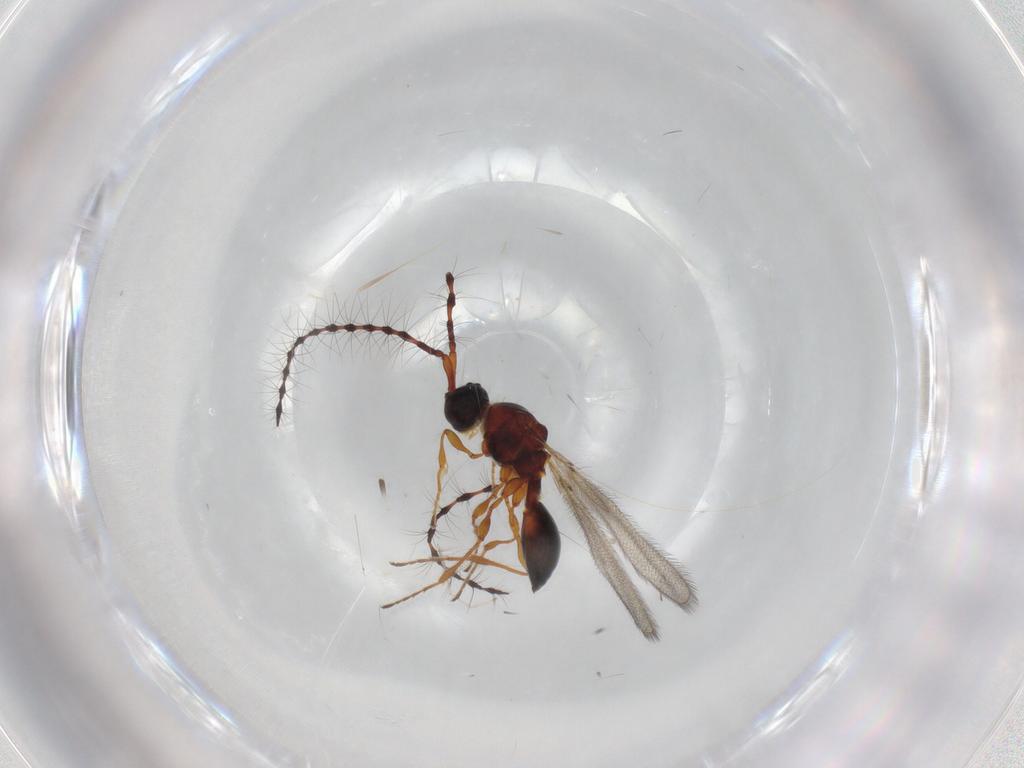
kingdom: Animalia
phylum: Arthropoda
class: Insecta
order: Hymenoptera
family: Diapriidae
